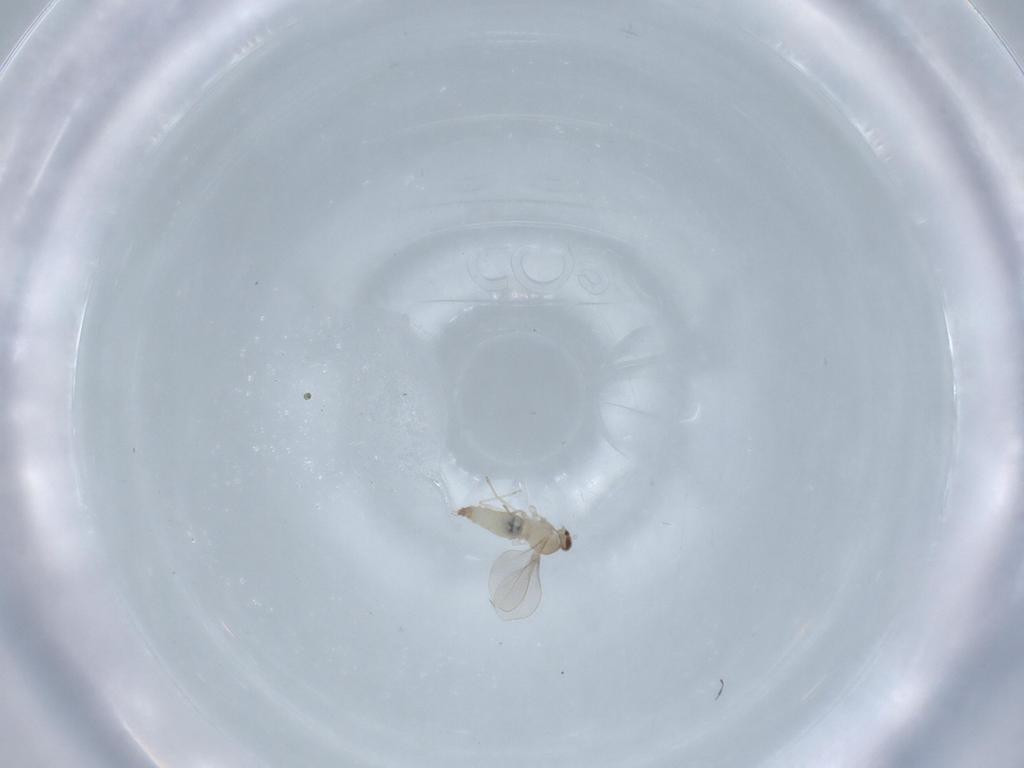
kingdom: Animalia
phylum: Arthropoda
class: Insecta
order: Diptera
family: Cecidomyiidae
